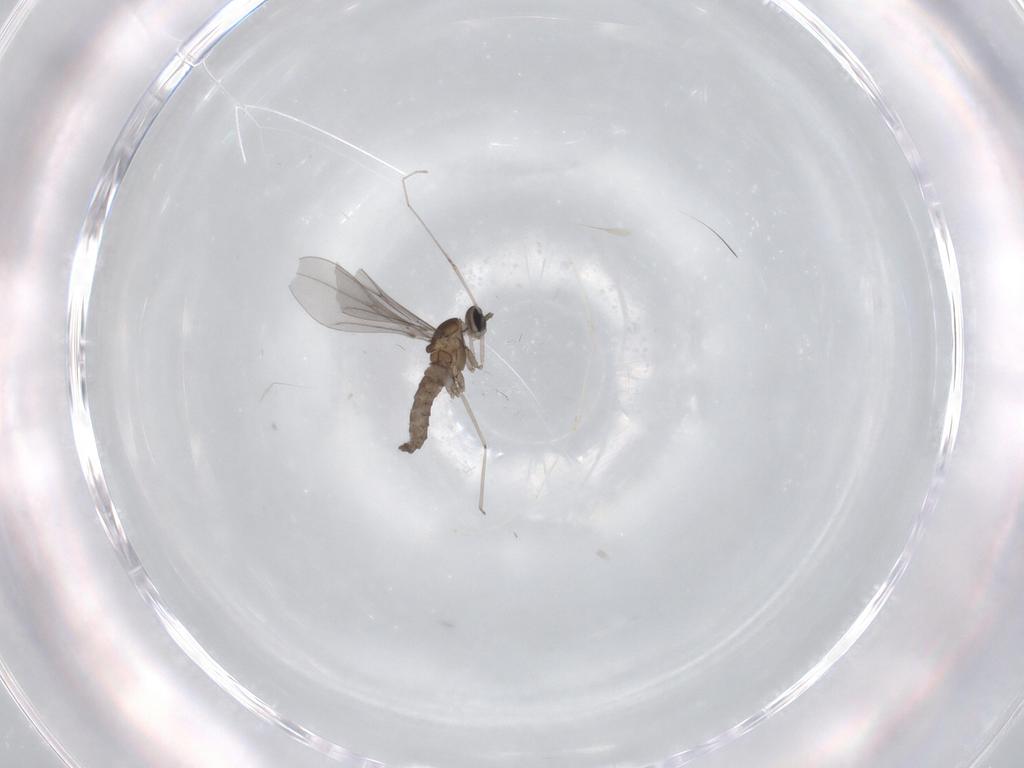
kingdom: Animalia
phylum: Arthropoda
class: Insecta
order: Diptera
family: Cecidomyiidae
